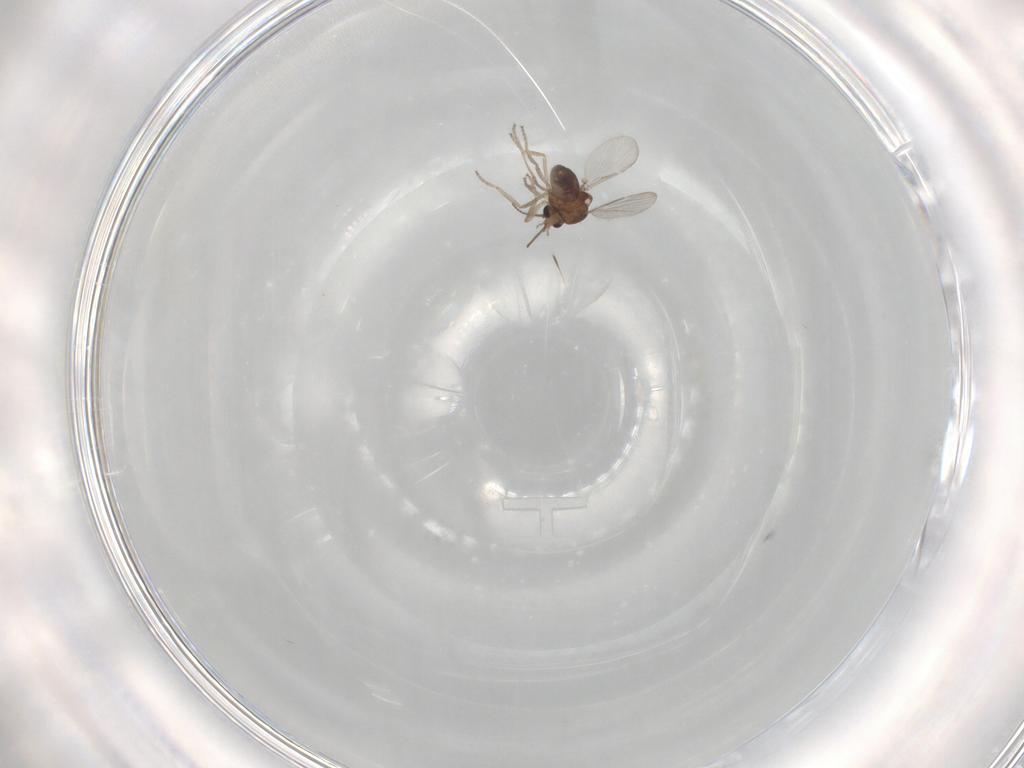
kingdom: Animalia
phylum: Arthropoda
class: Insecta
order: Diptera
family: Ceratopogonidae
